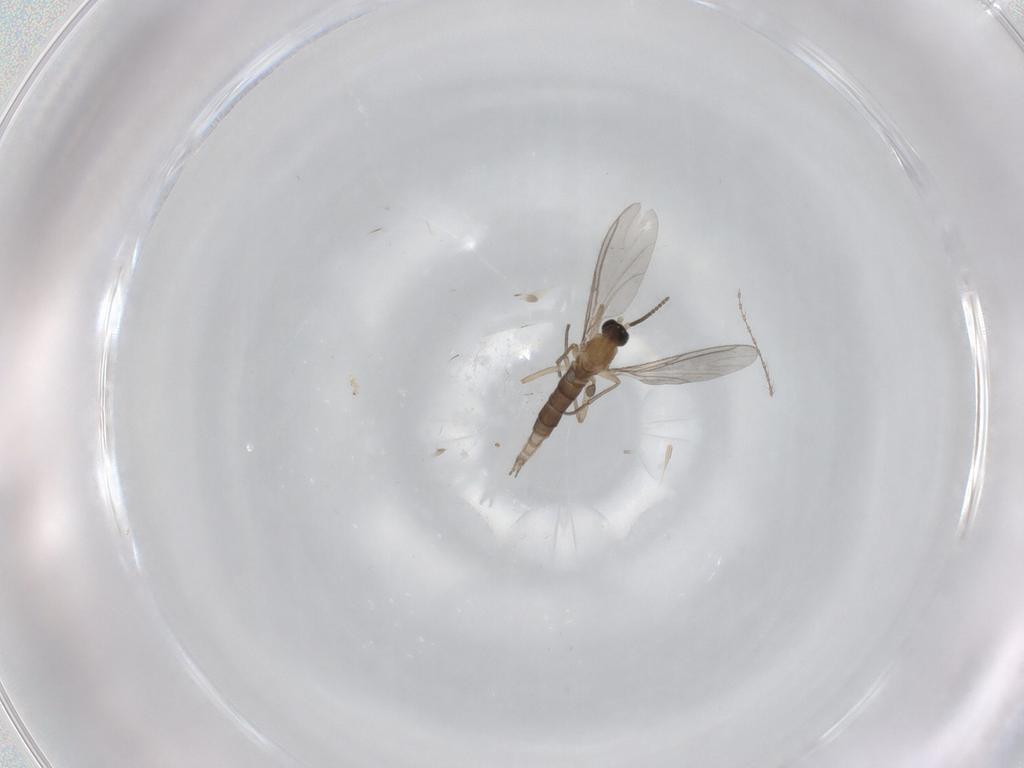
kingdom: Animalia
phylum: Arthropoda
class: Insecta
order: Diptera
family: Sciaridae
